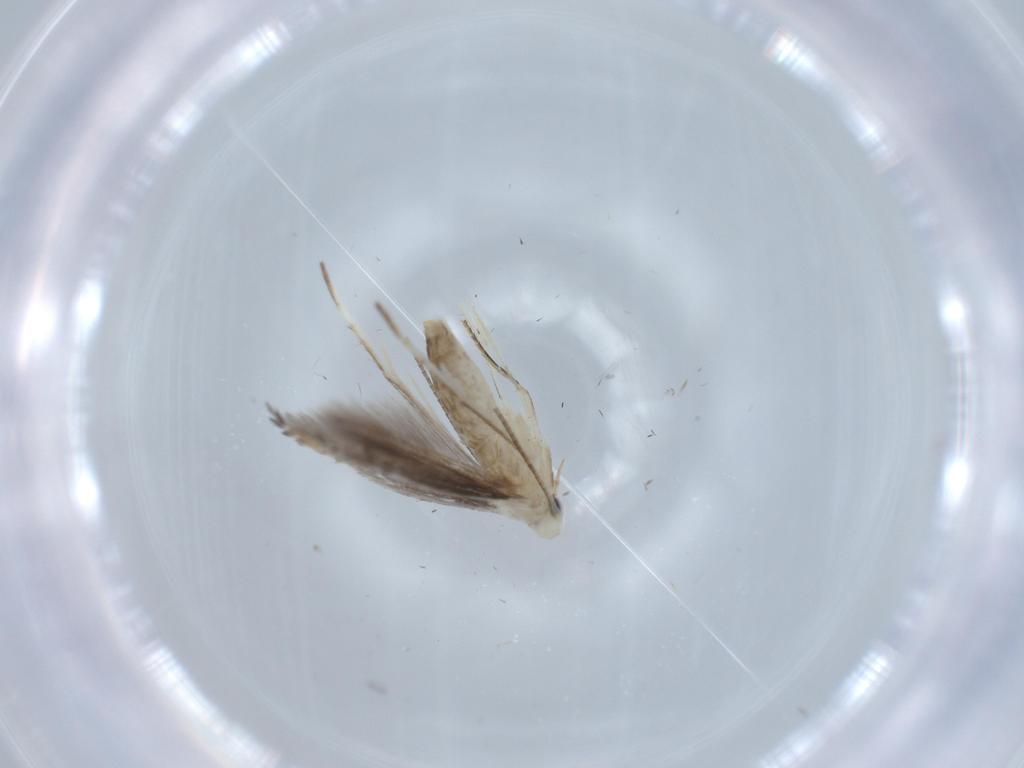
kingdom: Animalia
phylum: Arthropoda
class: Insecta
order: Lepidoptera
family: Gracillariidae
